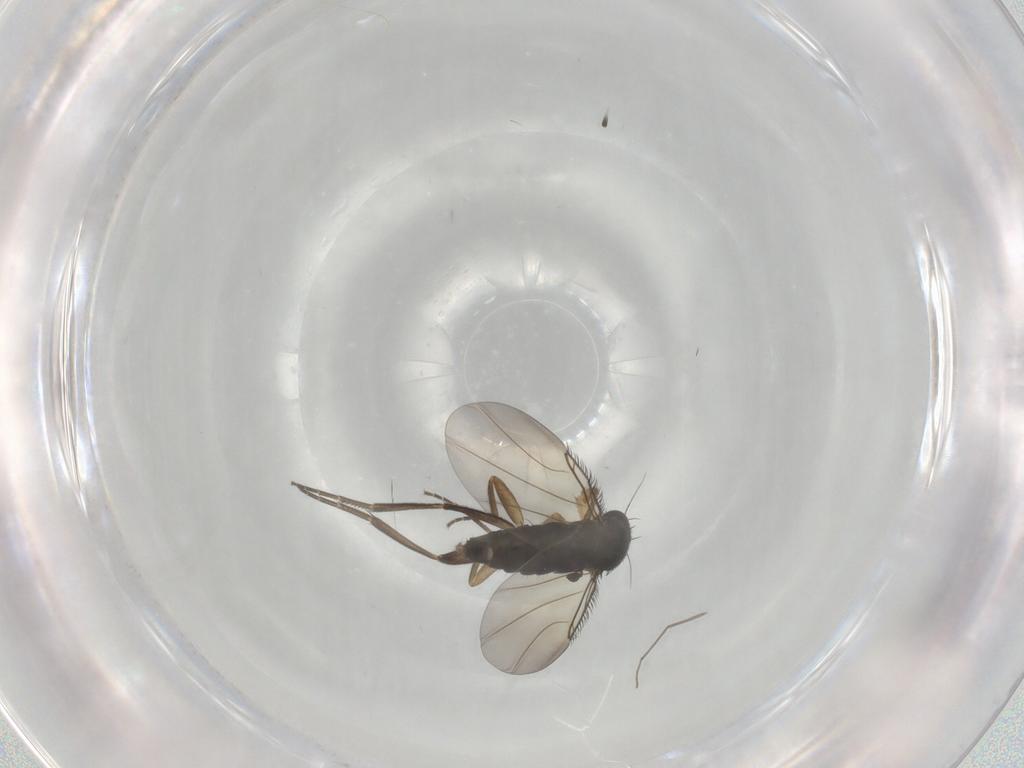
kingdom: Animalia
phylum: Arthropoda
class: Insecta
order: Diptera
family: Phoridae
